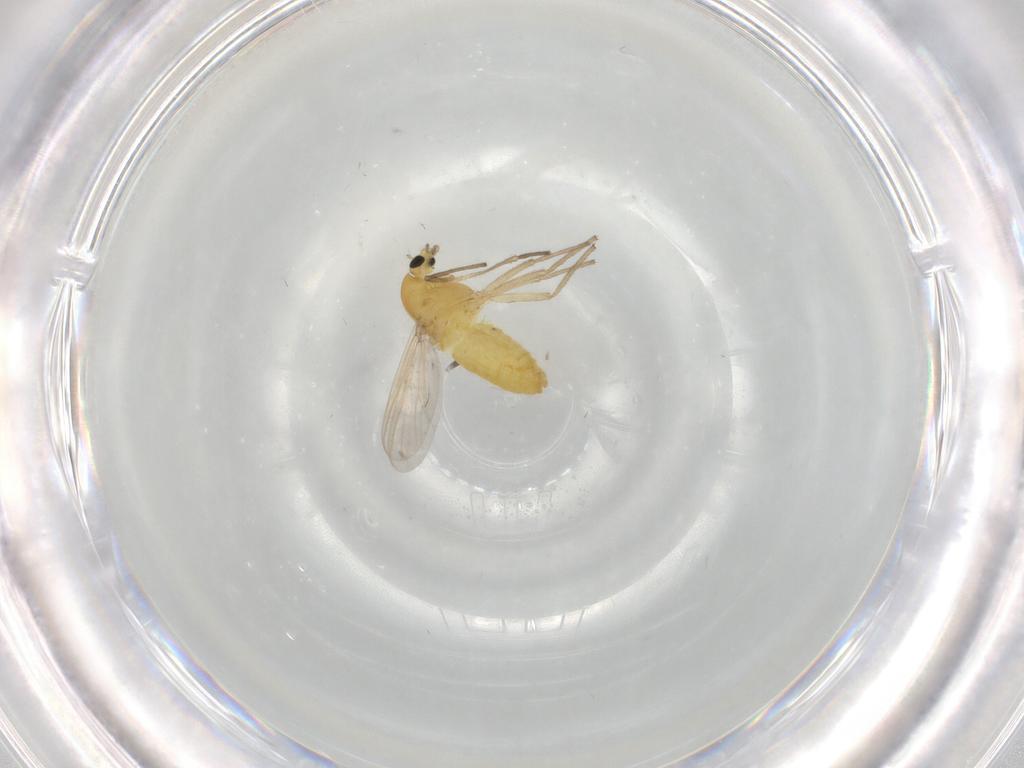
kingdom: Animalia
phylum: Arthropoda
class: Insecta
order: Diptera
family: Chironomidae
